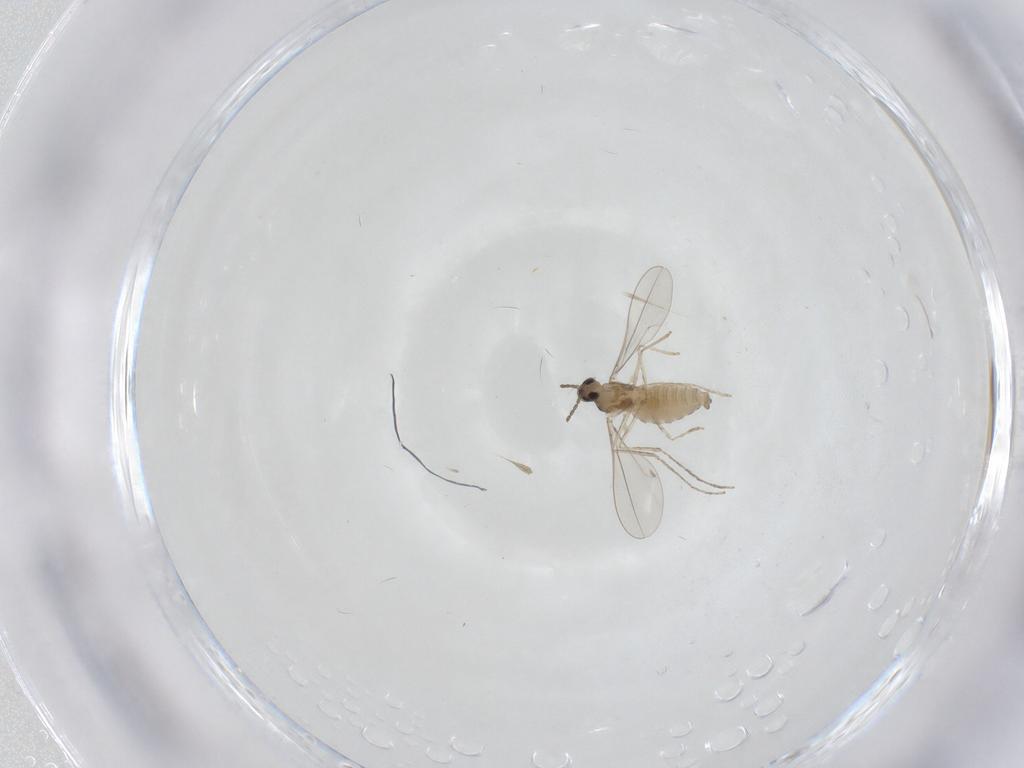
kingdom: Animalia
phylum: Arthropoda
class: Insecta
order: Diptera
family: Cecidomyiidae
